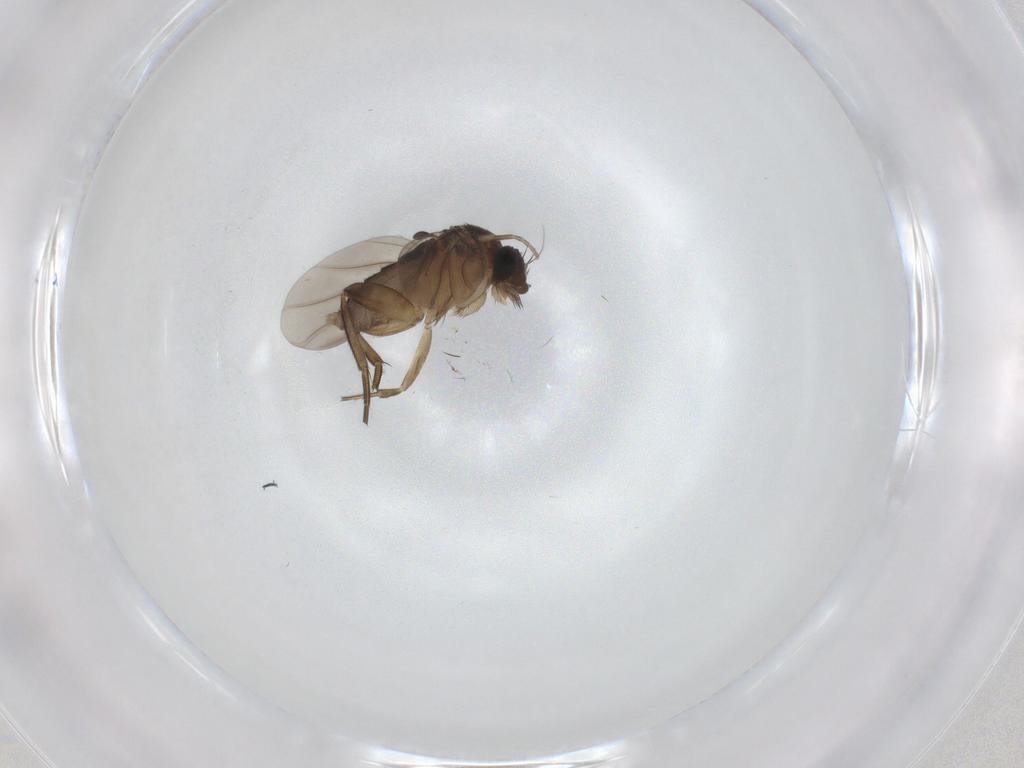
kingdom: Animalia
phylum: Arthropoda
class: Insecta
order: Diptera
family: Phoridae
